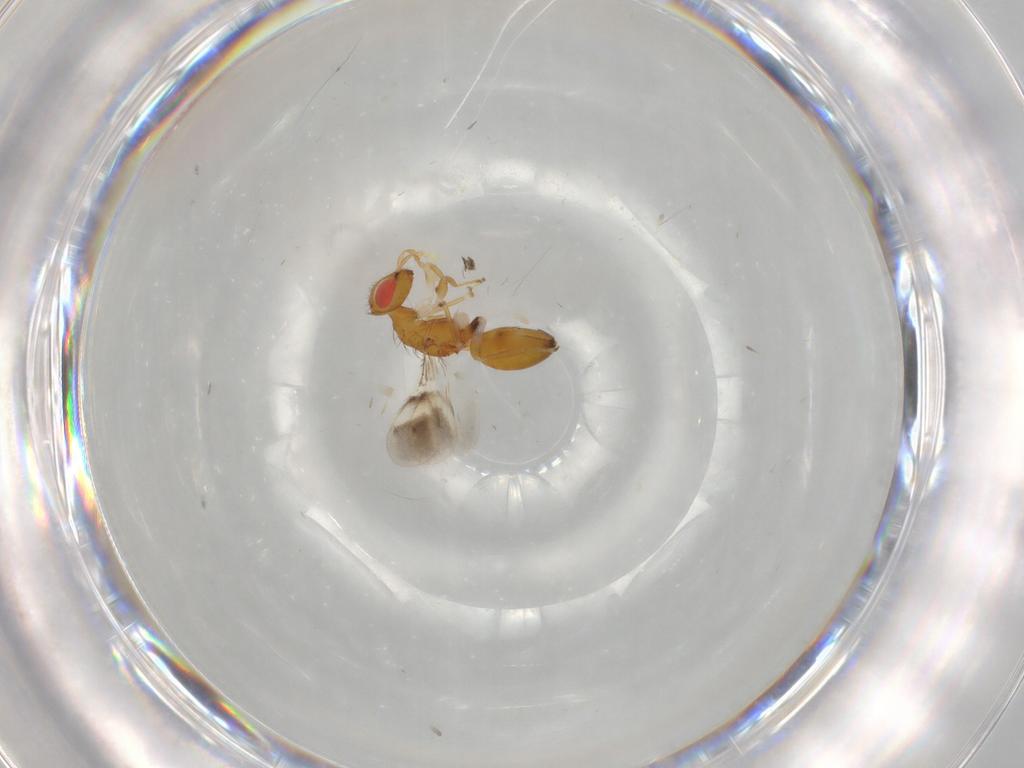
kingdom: Animalia
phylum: Arthropoda
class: Insecta
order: Hymenoptera
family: Eulophidae
